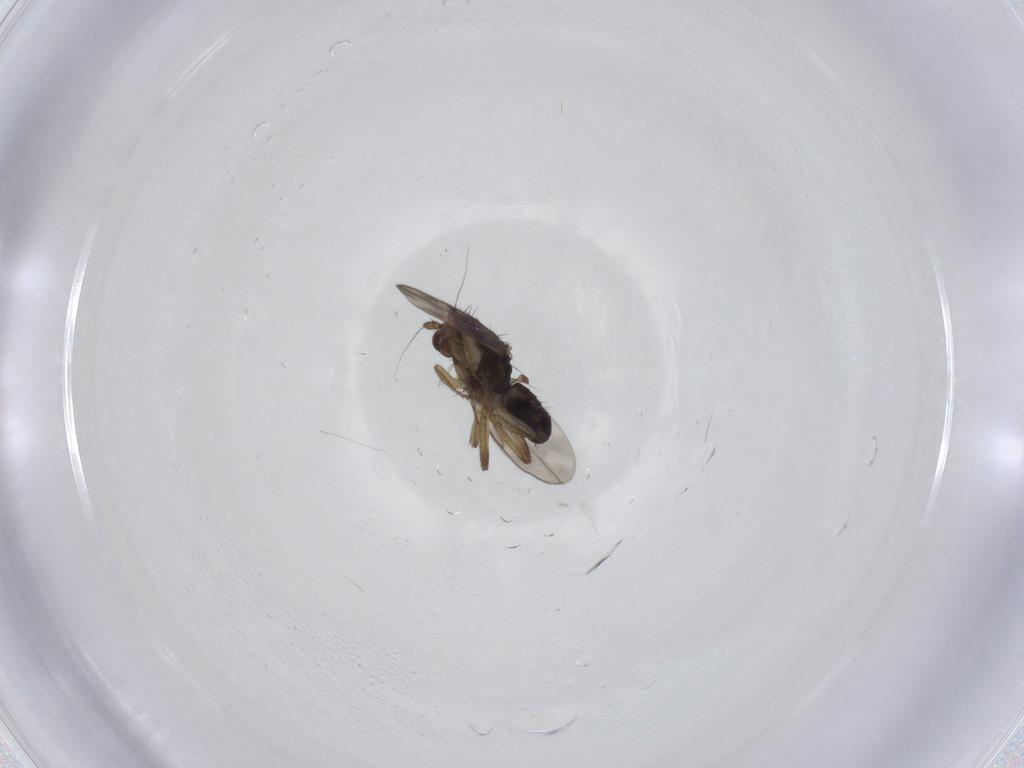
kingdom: Animalia
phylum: Arthropoda
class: Insecta
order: Diptera
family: Sphaeroceridae
